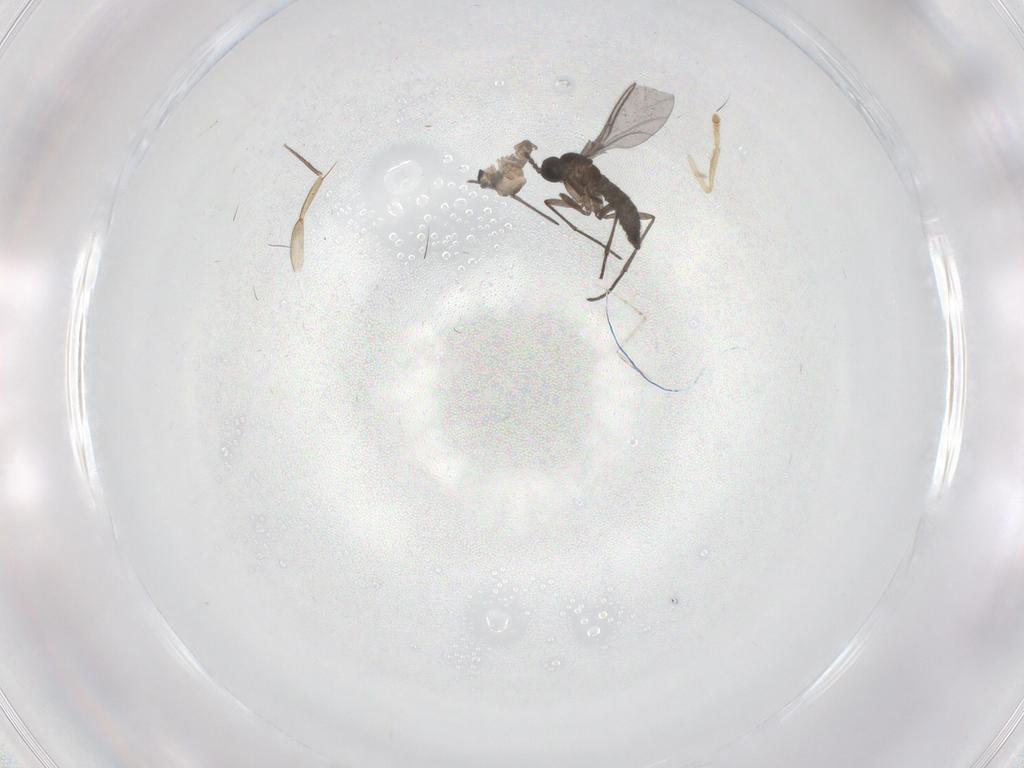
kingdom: Animalia
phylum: Arthropoda
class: Insecta
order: Diptera
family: Cecidomyiidae
